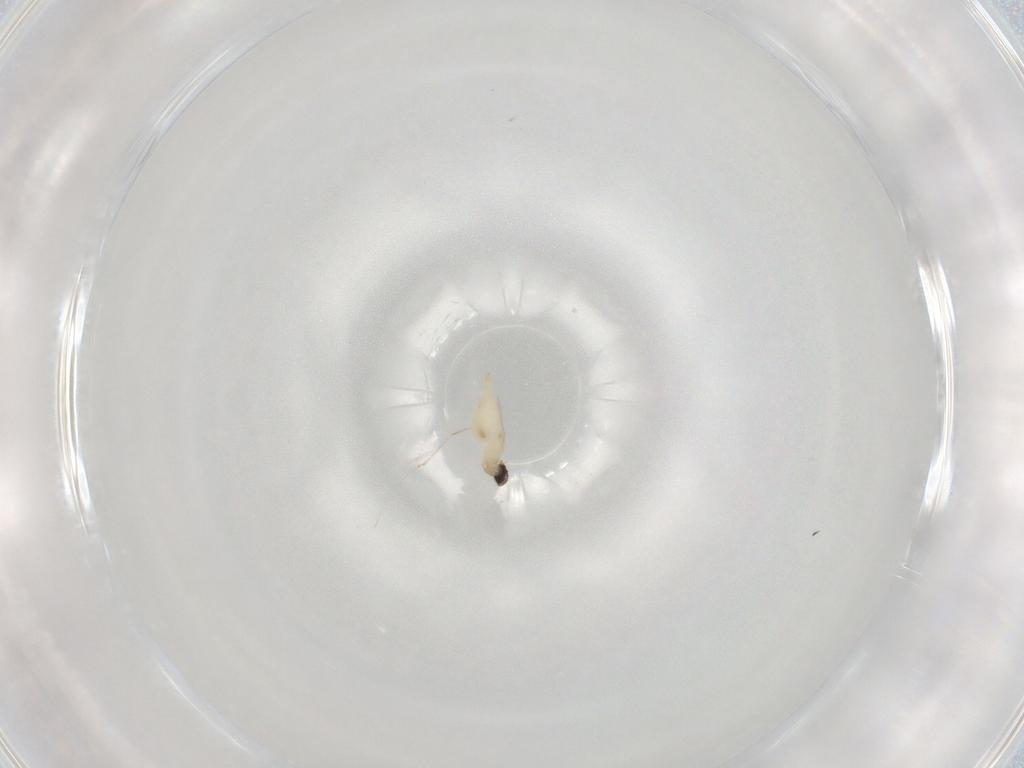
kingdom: Animalia
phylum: Arthropoda
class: Insecta
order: Diptera
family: Cecidomyiidae
